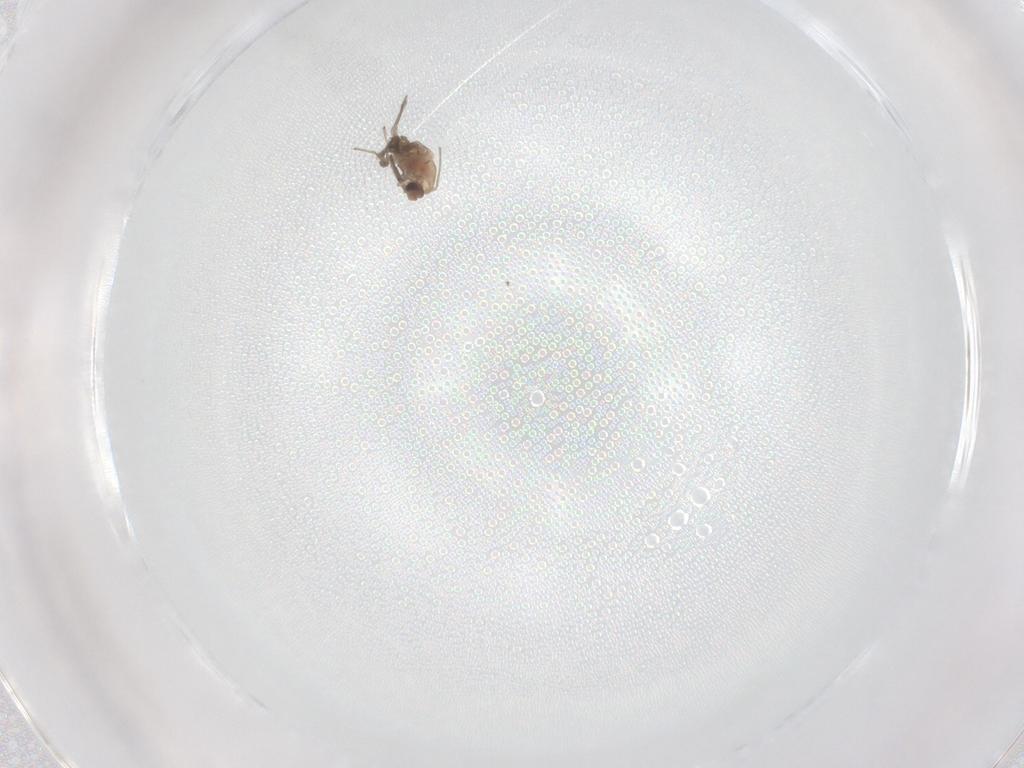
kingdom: Animalia
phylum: Arthropoda
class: Insecta
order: Diptera
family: Chironomidae
